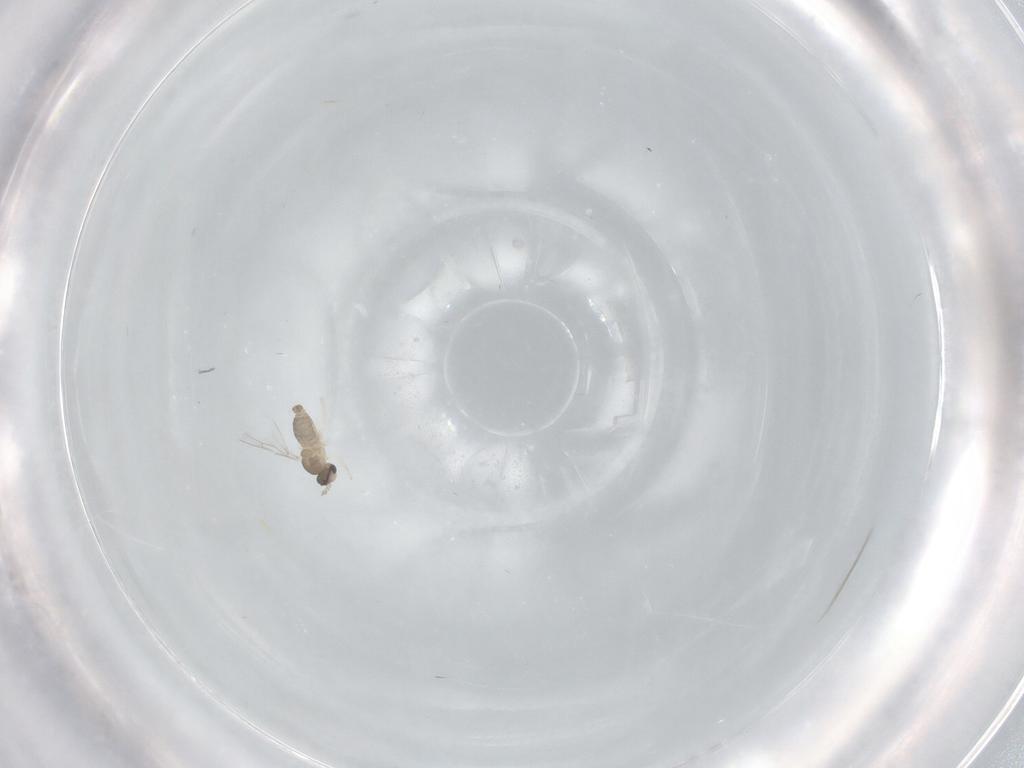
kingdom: Animalia
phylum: Arthropoda
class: Insecta
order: Diptera
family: Cecidomyiidae
